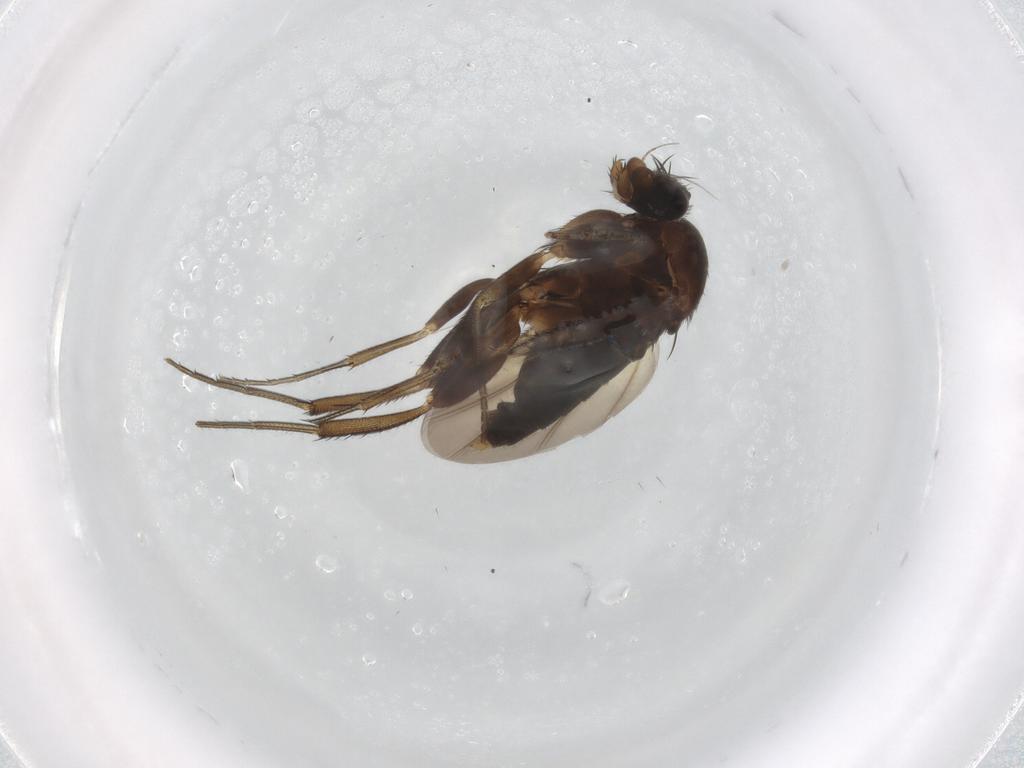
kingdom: Animalia
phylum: Arthropoda
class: Insecta
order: Diptera
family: Phoridae
